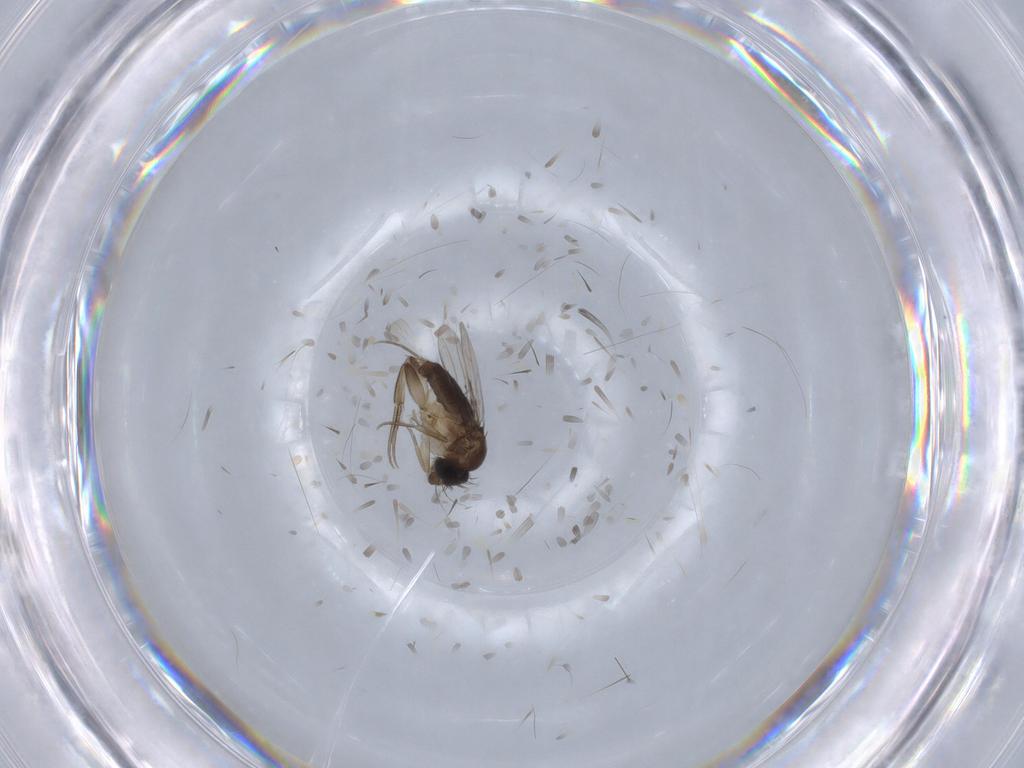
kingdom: Animalia
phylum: Arthropoda
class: Insecta
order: Diptera
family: Phoridae
